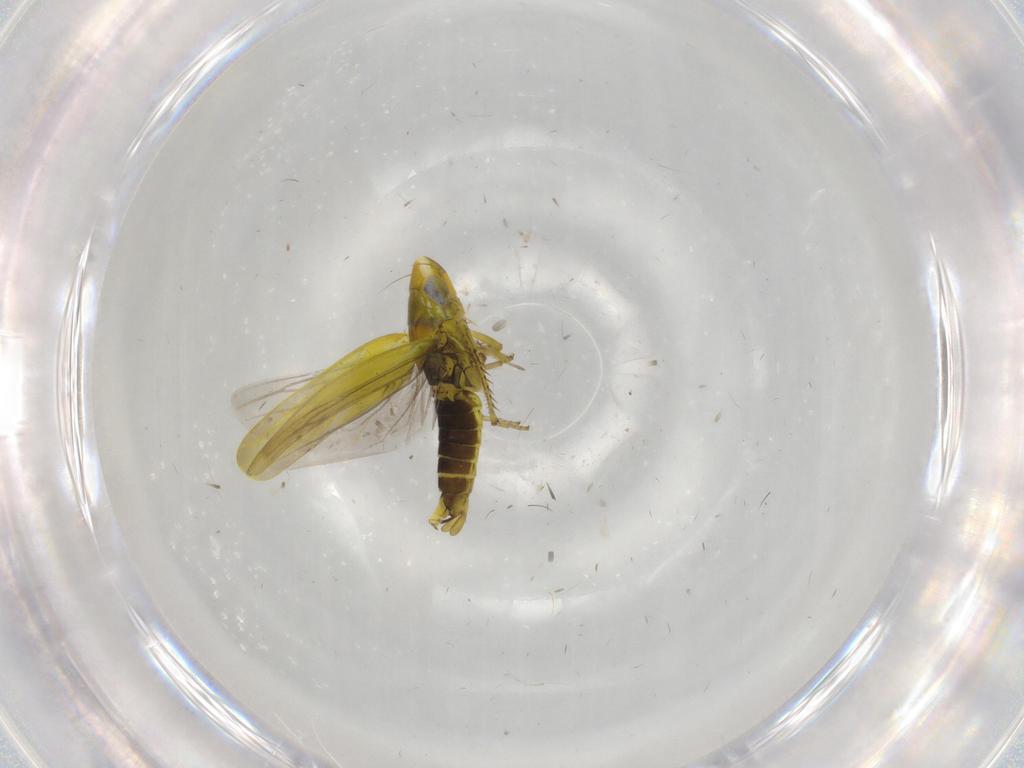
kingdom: Animalia
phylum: Arthropoda
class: Insecta
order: Hemiptera
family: Cicadellidae
